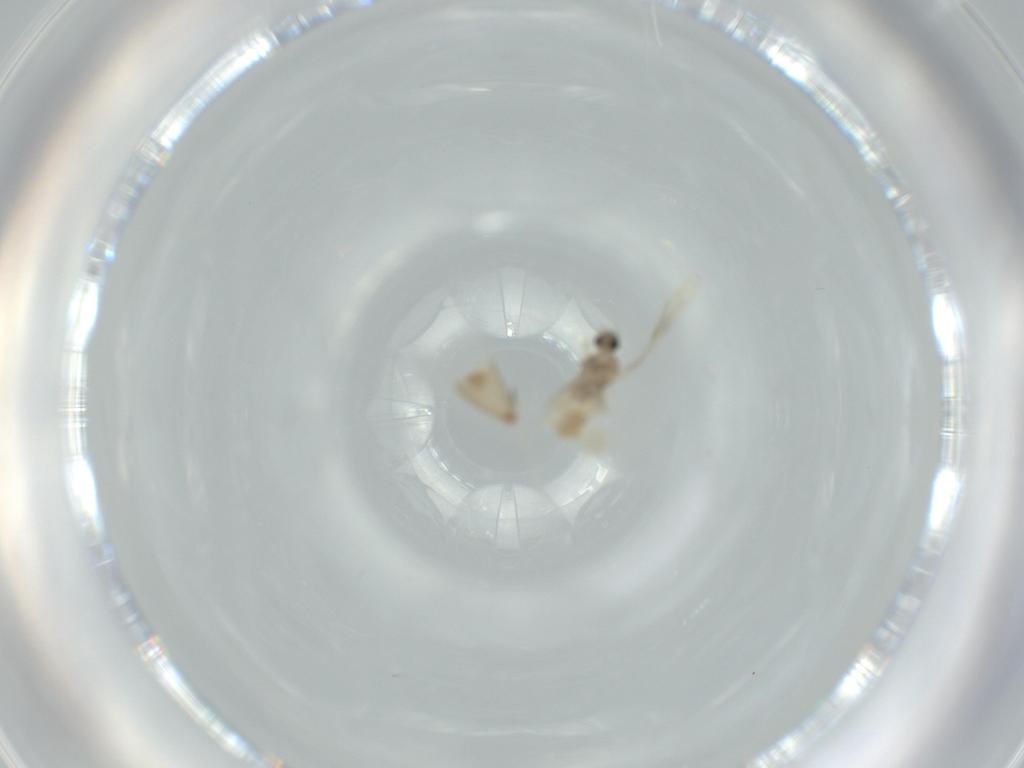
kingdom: Animalia
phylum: Arthropoda
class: Insecta
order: Diptera
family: Cecidomyiidae
